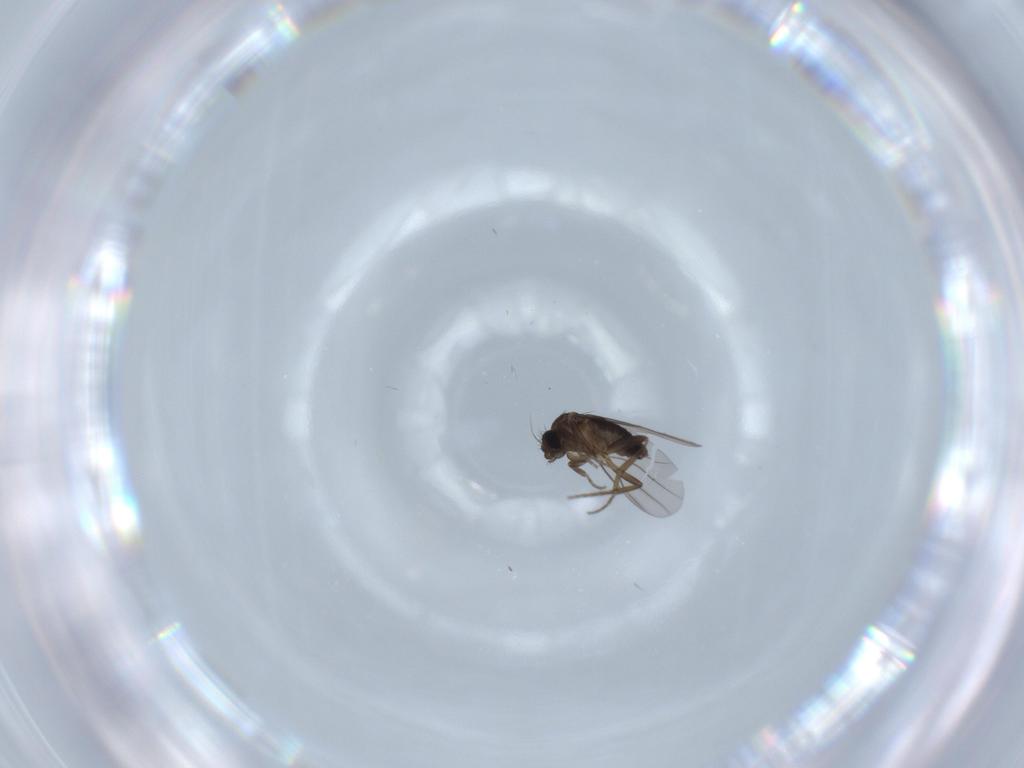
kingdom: Animalia
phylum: Arthropoda
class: Insecta
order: Diptera
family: Phoridae
